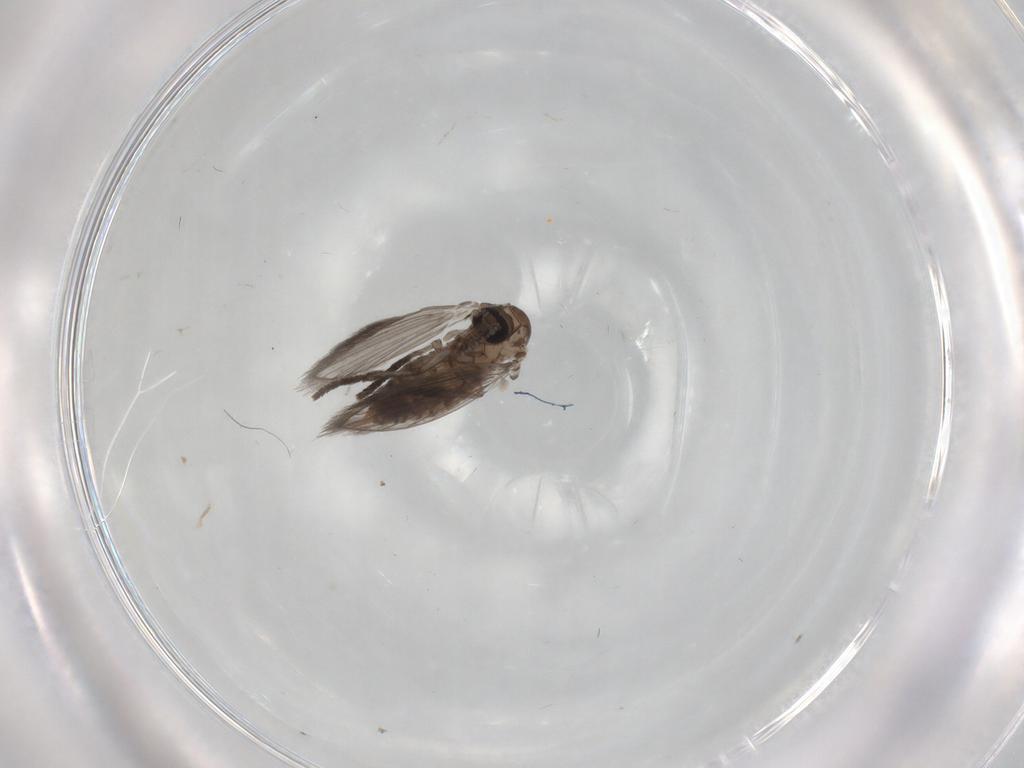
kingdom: Animalia
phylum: Arthropoda
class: Insecta
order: Diptera
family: Psychodidae
